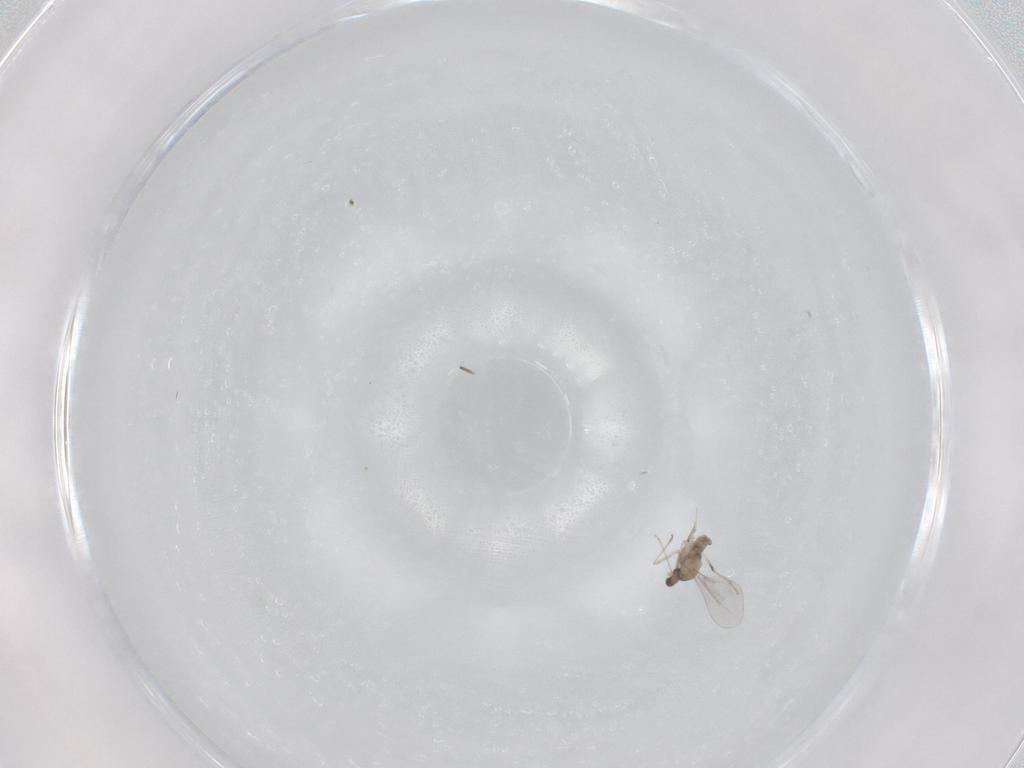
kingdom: Animalia
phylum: Arthropoda
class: Insecta
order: Diptera
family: Cecidomyiidae
